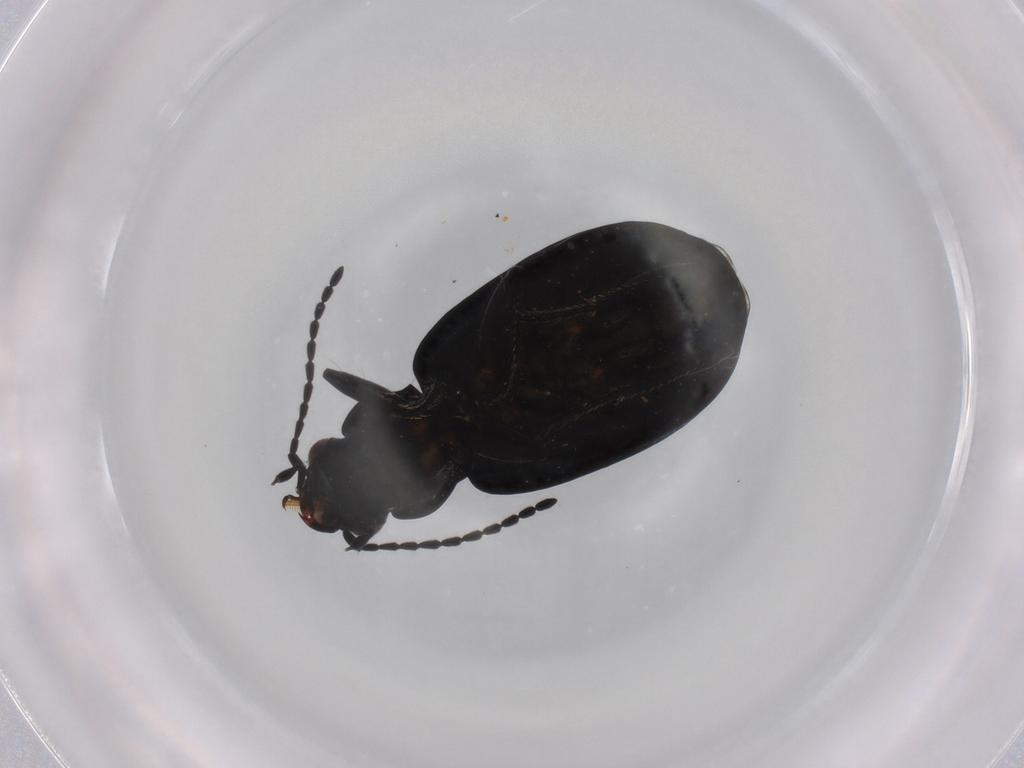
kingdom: Animalia
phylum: Arthropoda
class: Insecta
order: Coleoptera
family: Carabidae
